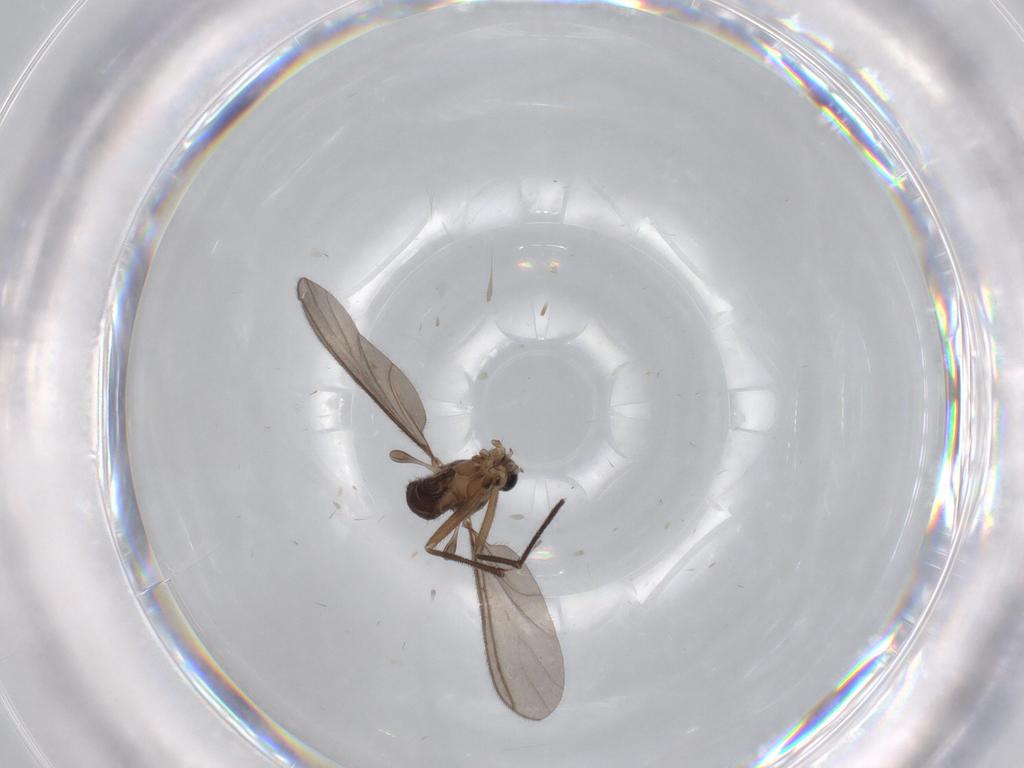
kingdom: Animalia
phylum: Arthropoda
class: Insecta
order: Diptera
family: Sciaridae
